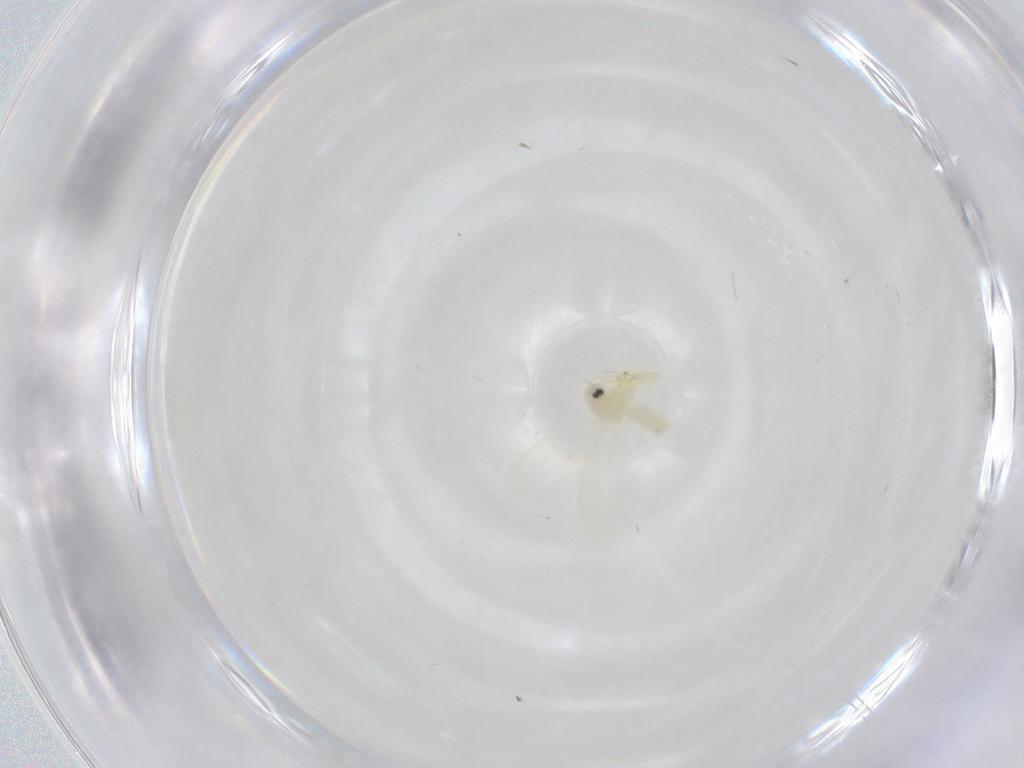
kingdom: Animalia
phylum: Arthropoda
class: Insecta
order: Hemiptera
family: Aleyrodidae
